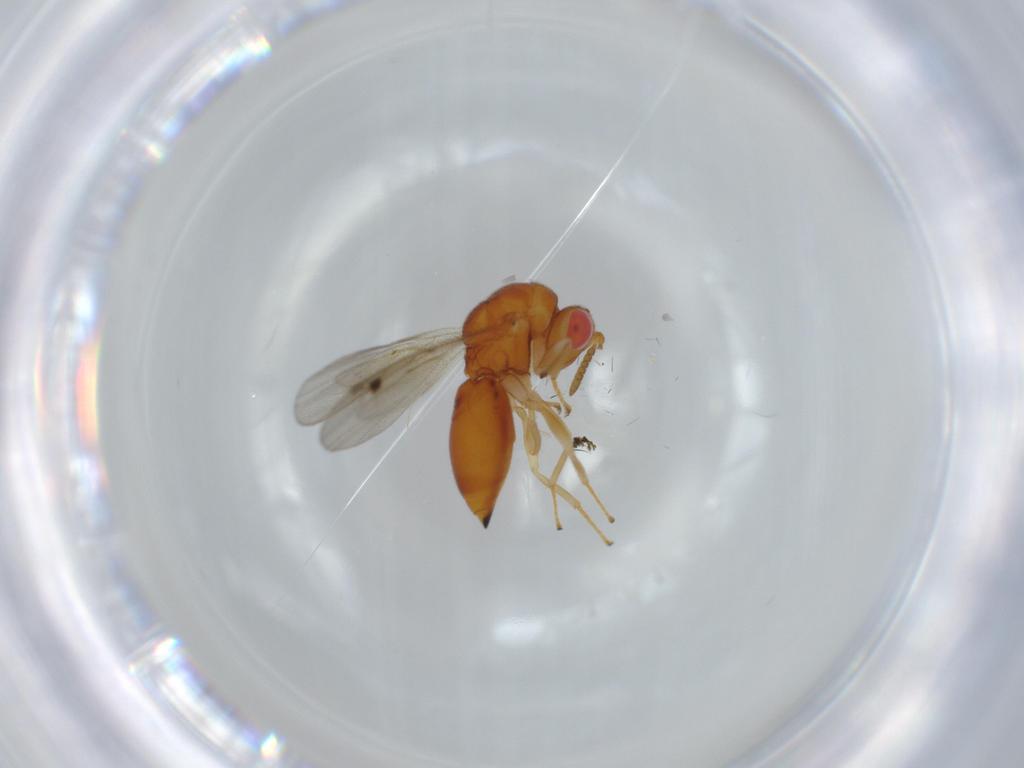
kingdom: Animalia
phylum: Arthropoda
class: Insecta
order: Hymenoptera
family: Eurytomidae
